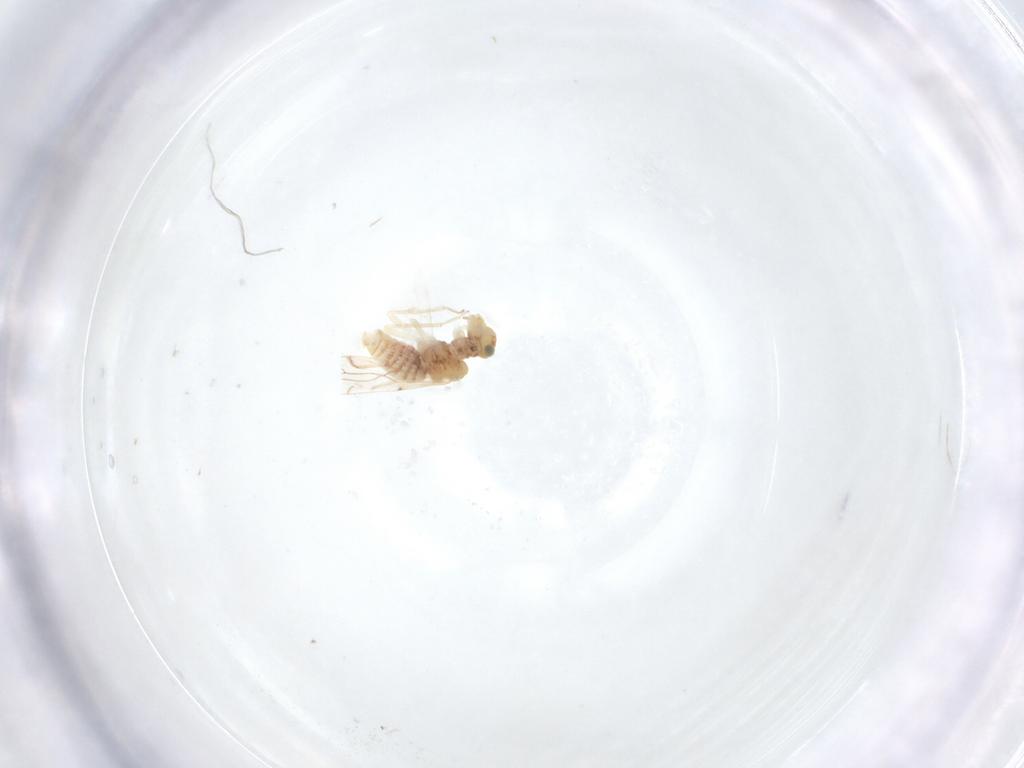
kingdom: Animalia
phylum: Arthropoda
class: Insecta
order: Psocodea
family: Lachesillidae
